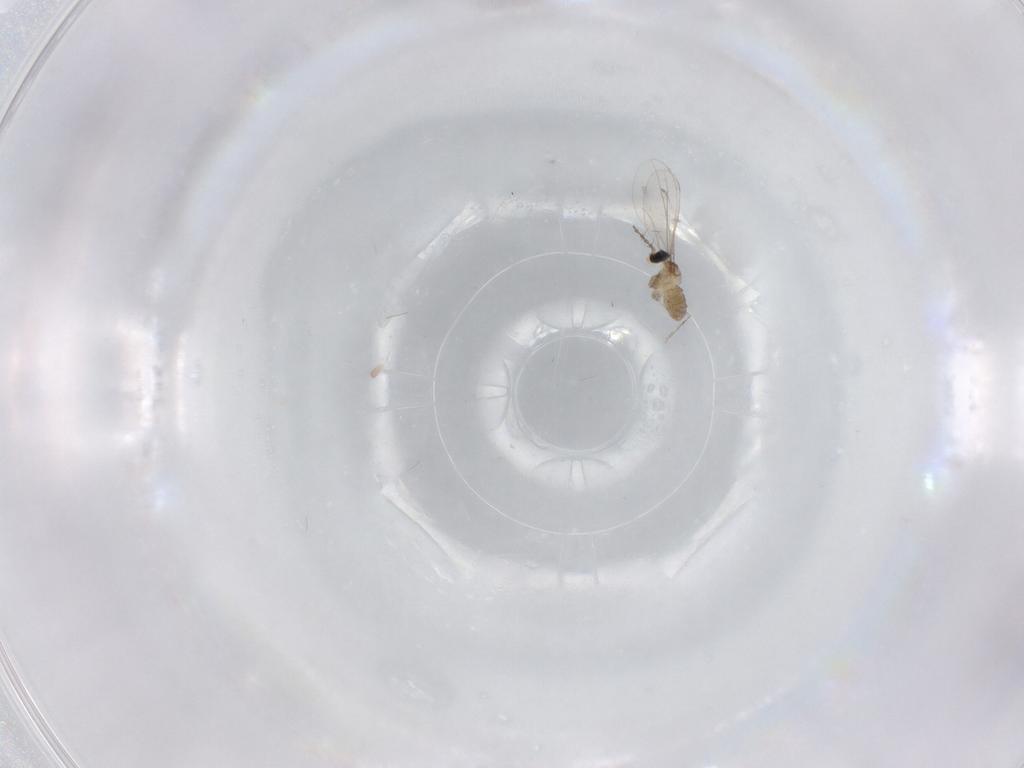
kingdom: Animalia
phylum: Arthropoda
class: Insecta
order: Diptera
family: Cecidomyiidae
